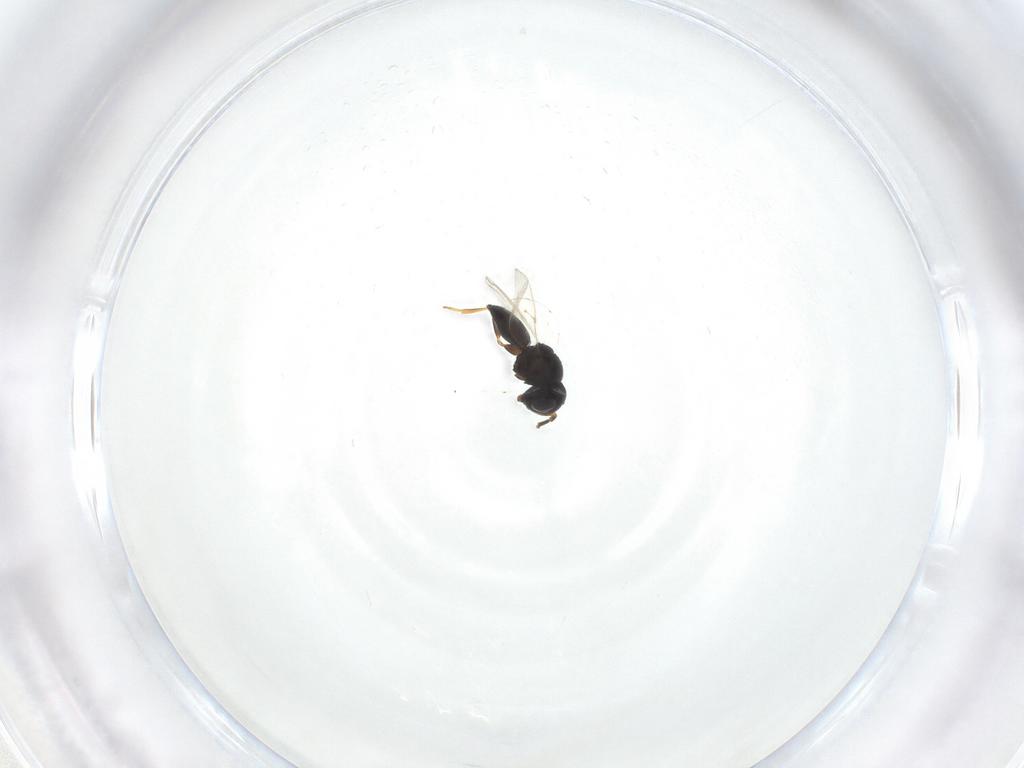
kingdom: Animalia
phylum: Arthropoda
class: Insecta
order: Hymenoptera
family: Scelionidae
